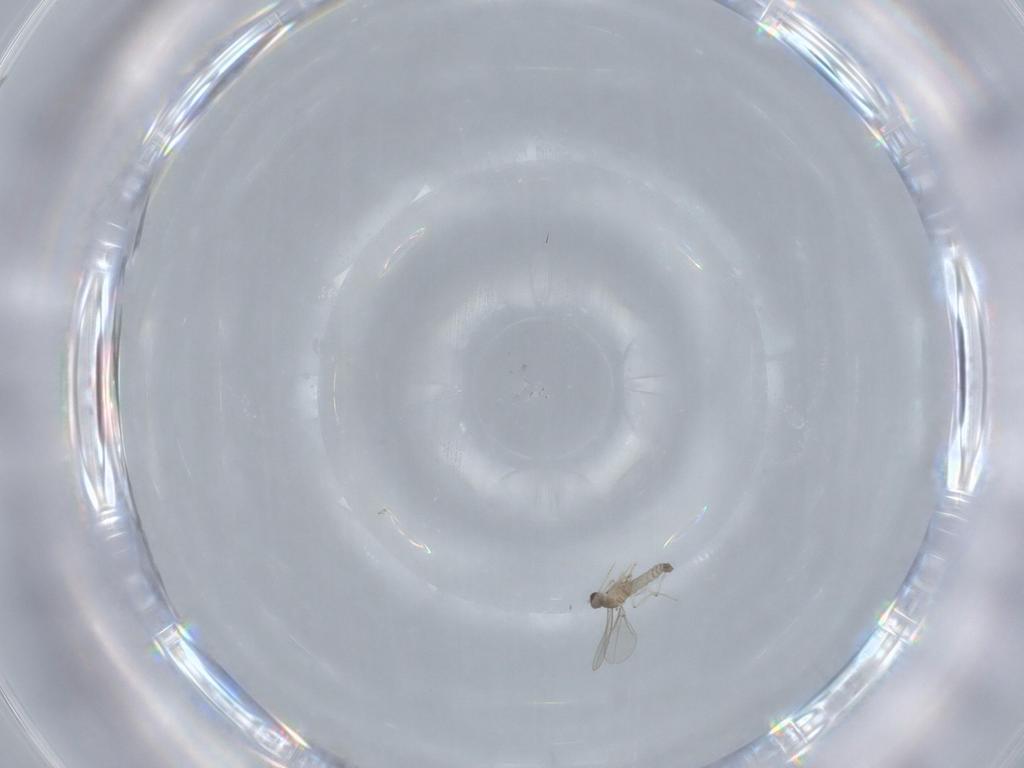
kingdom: Animalia
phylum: Arthropoda
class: Insecta
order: Diptera
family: Cecidomyiidae
